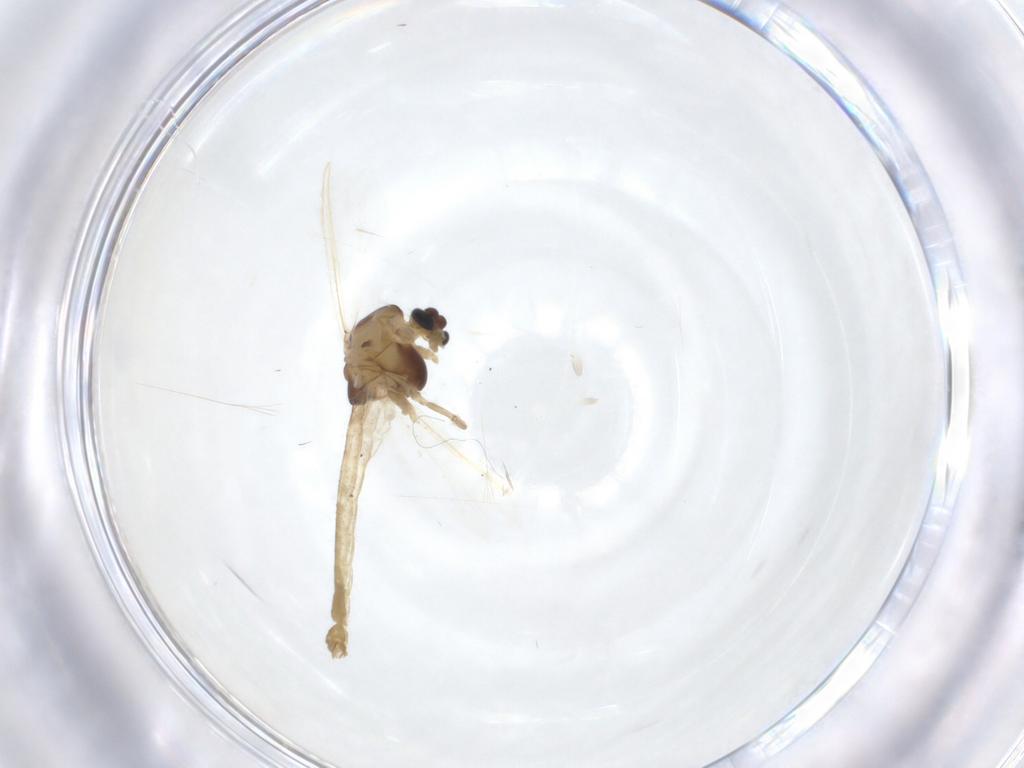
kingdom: Animalia
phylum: Arthropoda
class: Insecta
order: Diptera
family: Chironomidae
